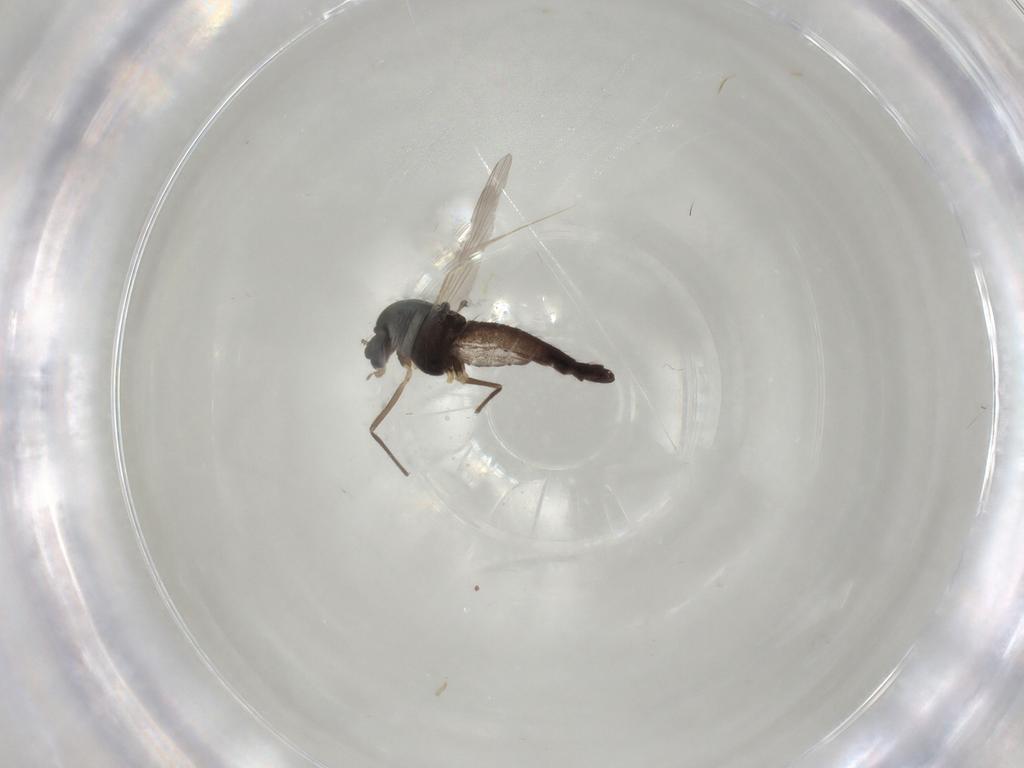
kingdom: Animalia
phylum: Arthropoda
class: Insecta
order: Diptera
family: Chironomidae
